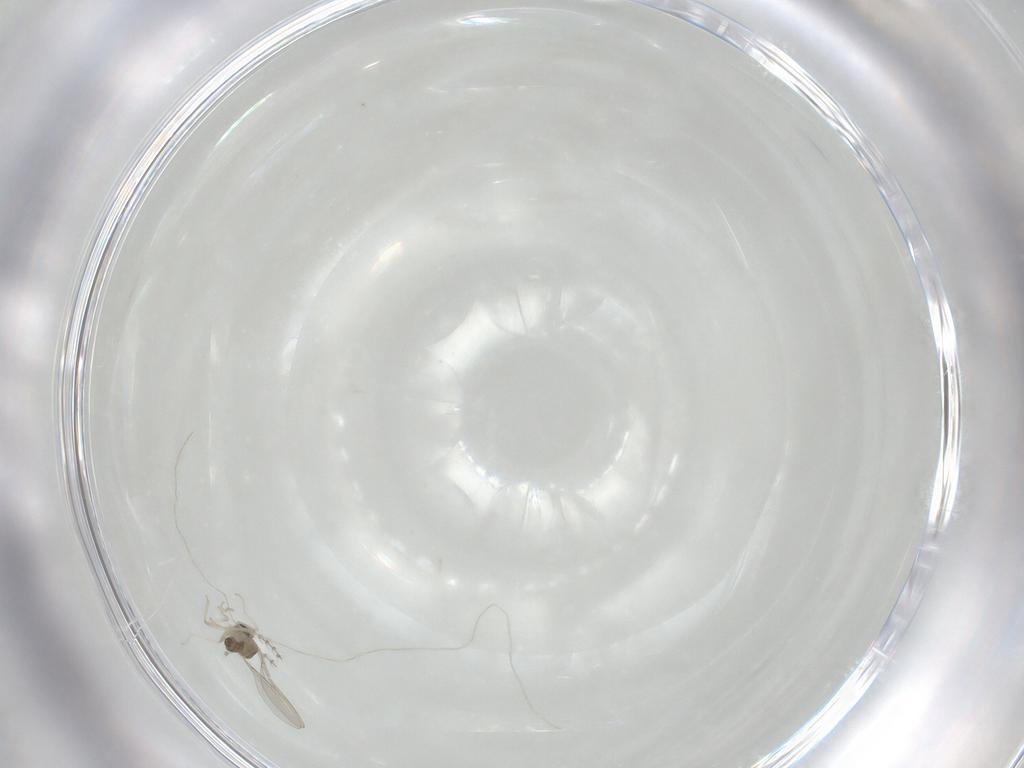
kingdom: Animalia
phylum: Arthropoda
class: Insecta
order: Diptera
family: Cecidomyiidae
